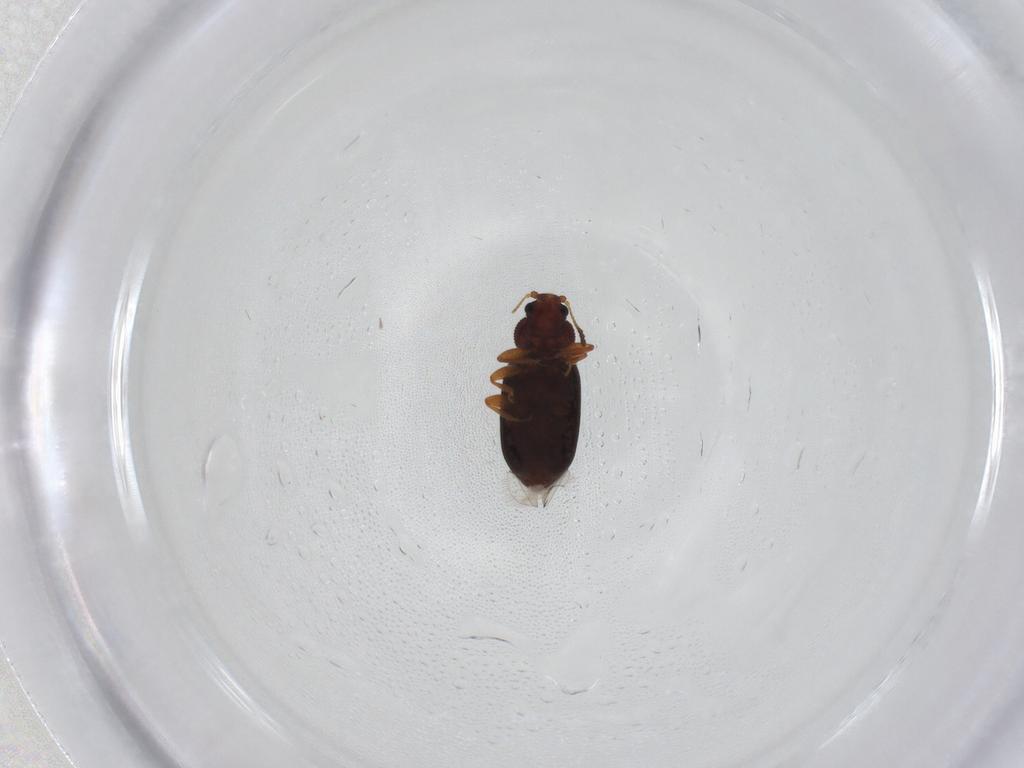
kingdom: Animalia
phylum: Arthropoda
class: Insecta
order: Coleoptera
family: Latridiidae
